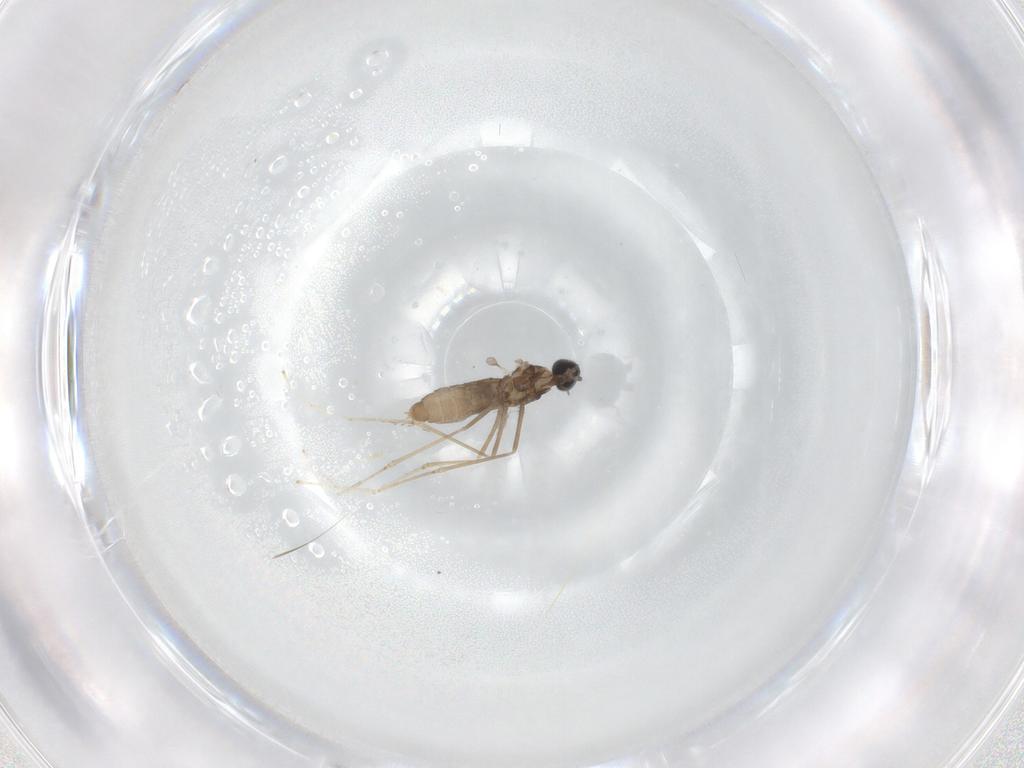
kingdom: Animalia
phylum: Arthropoda
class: Insecta
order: Diptera
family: Cecidomyiidae
